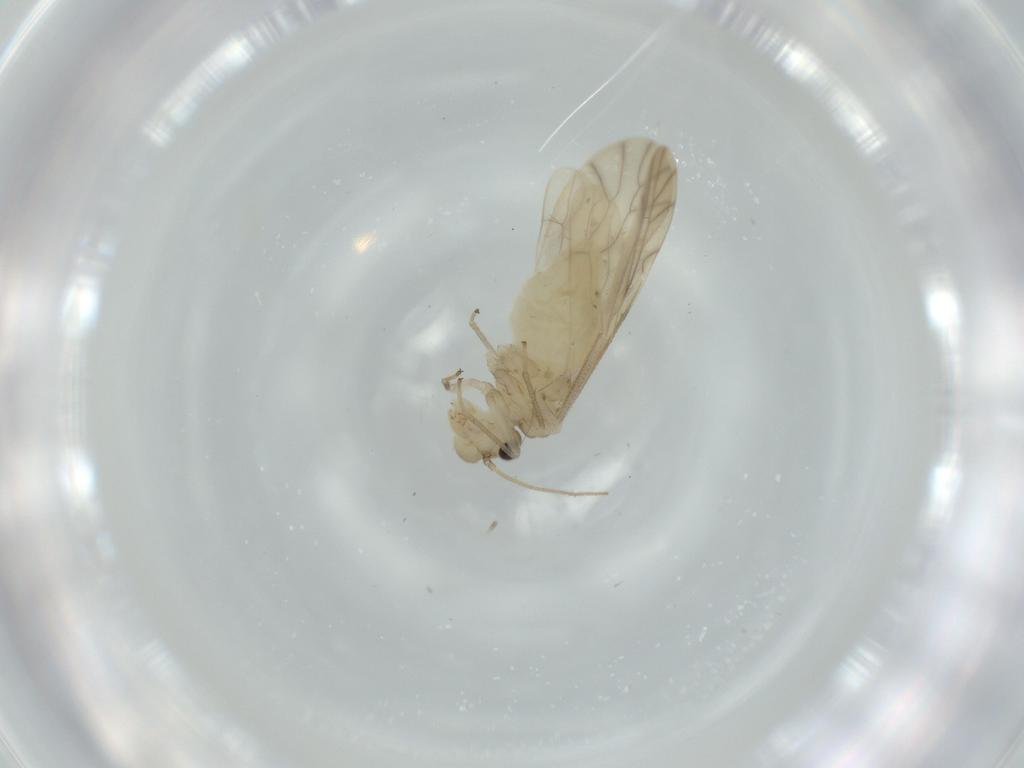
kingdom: Animalia
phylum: Arthropoda
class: Insecta
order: Psocodea
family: Caeciliusidae
